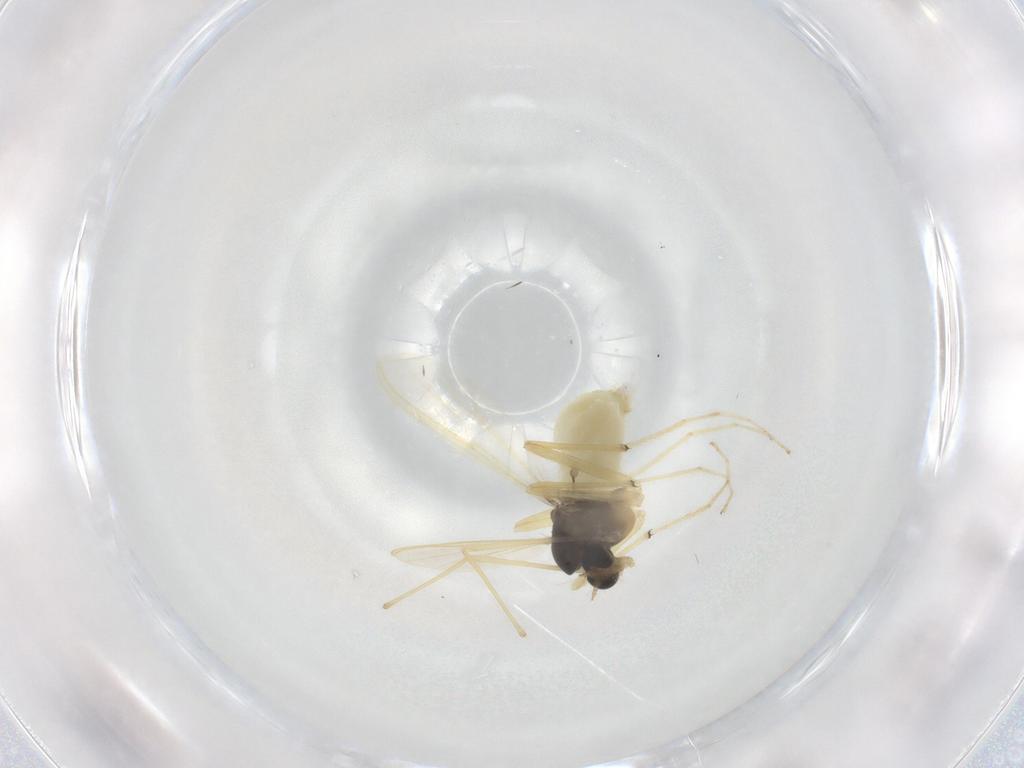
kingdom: Animalia
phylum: Arthropoda
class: Insecta
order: Diptera
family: Chironomidae
